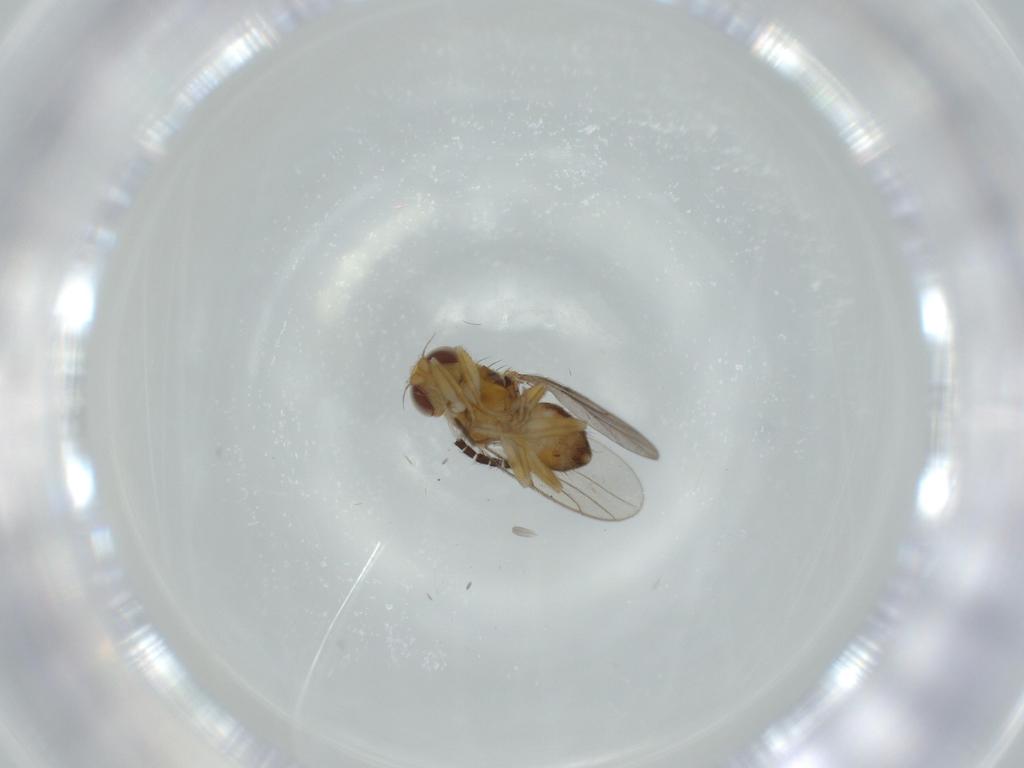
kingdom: Animalia
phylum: Arthropoda
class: Insecta
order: Diptera
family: Chloropidae
